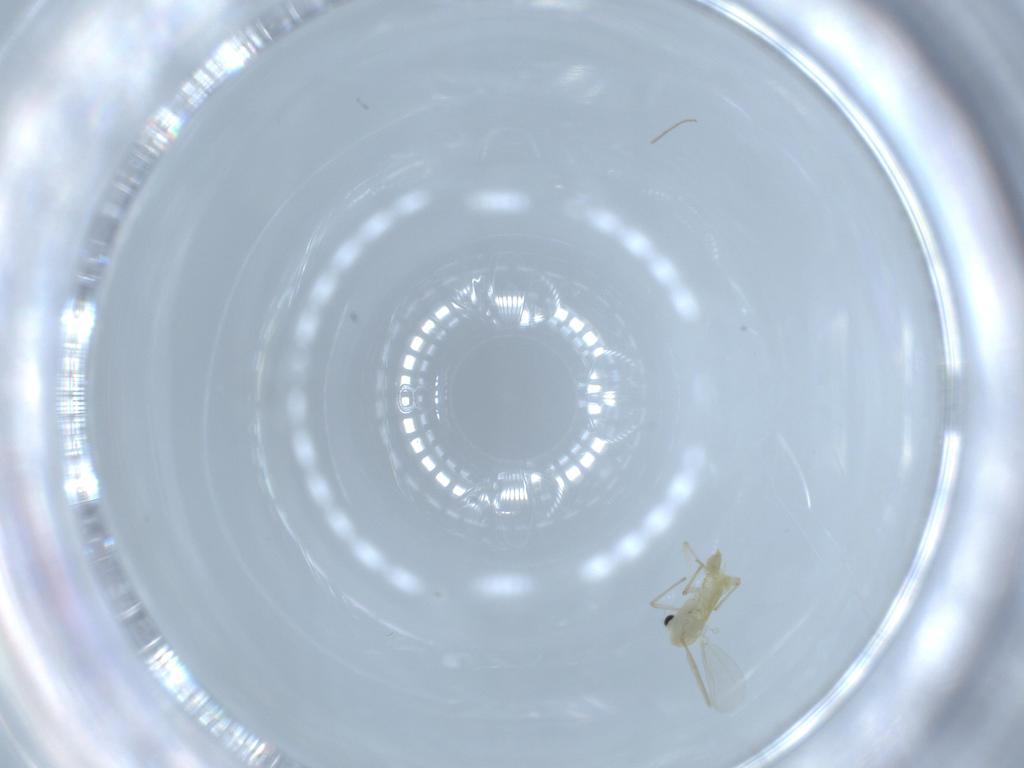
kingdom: Animalia
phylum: Arthropoda
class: Insecta
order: Diptera
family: Chironomidae
